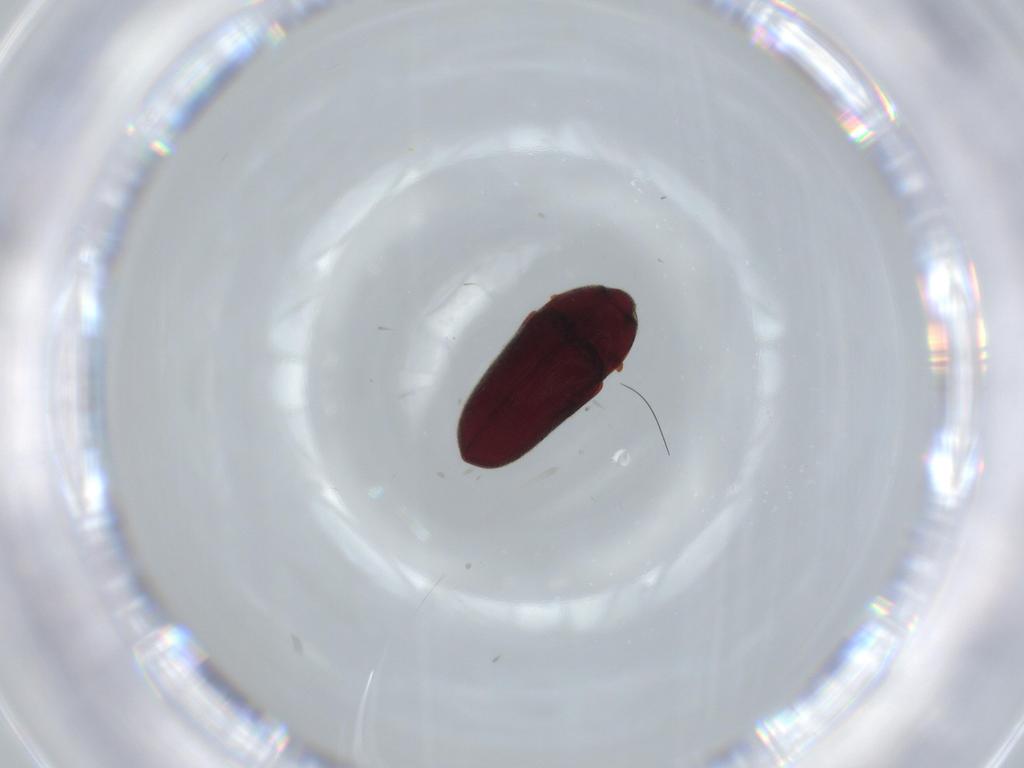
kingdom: Animalia
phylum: Arthropoda
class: Insecta
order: Coleoptera
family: Throscidae
